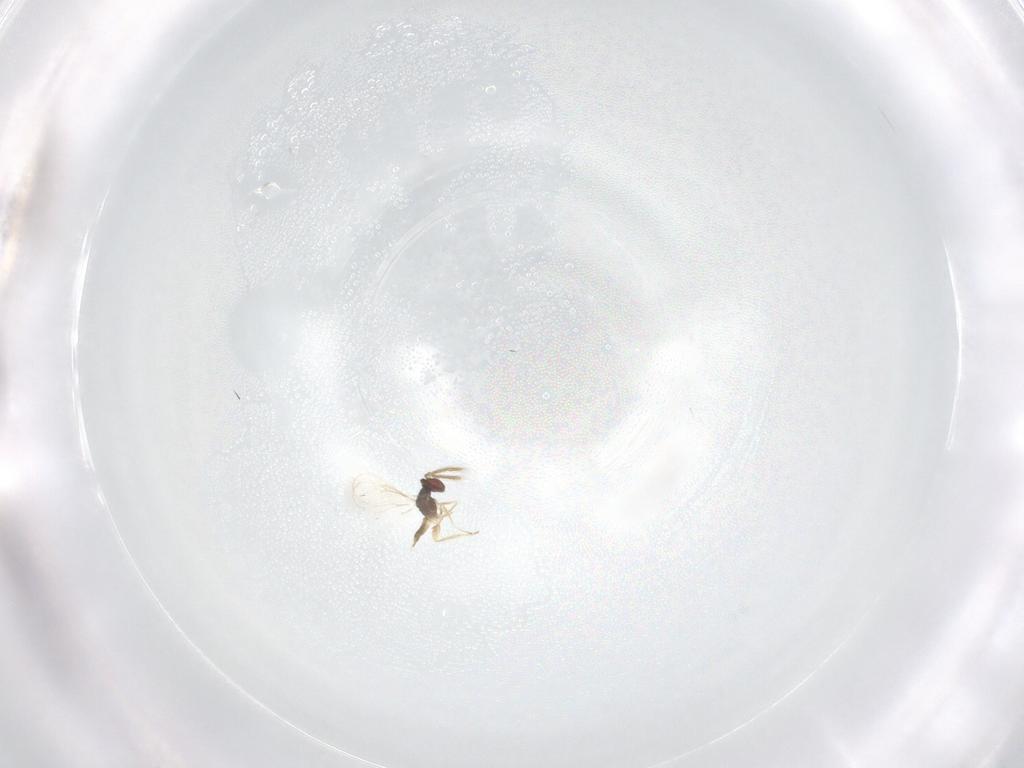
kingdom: Animalia
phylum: Arthropoda
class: Insecta
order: Hymenoptera
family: Eulophidae
